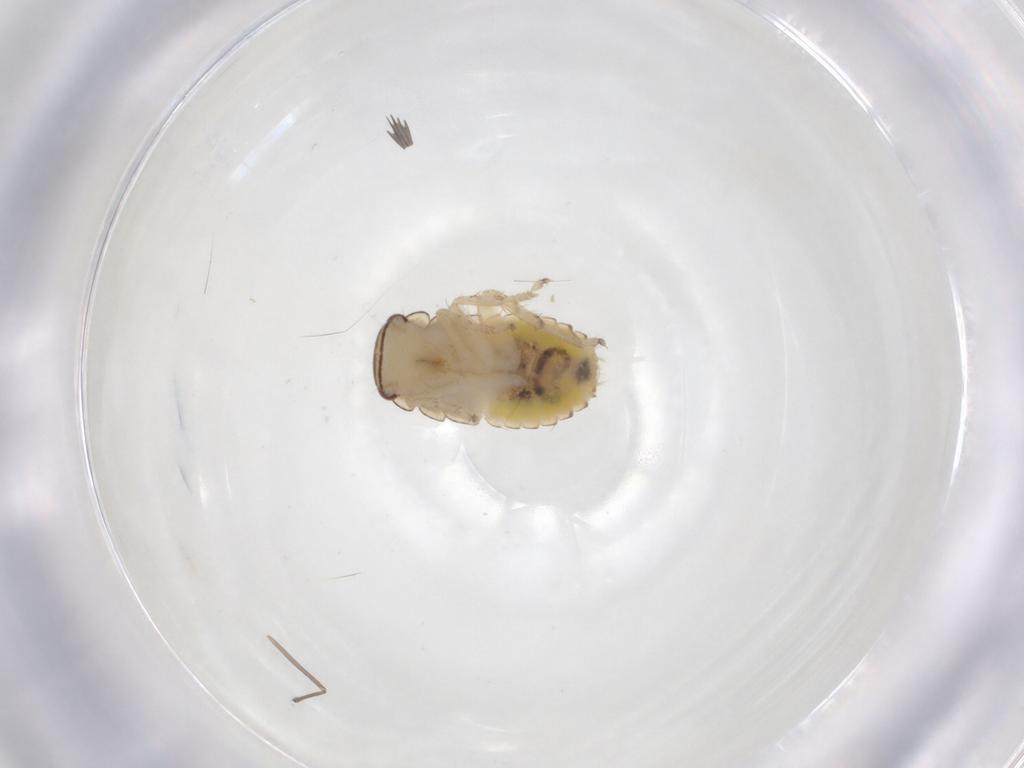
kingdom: Animalia
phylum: Arthropoda
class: Insecta
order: Blattodea
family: Ectobiidae
